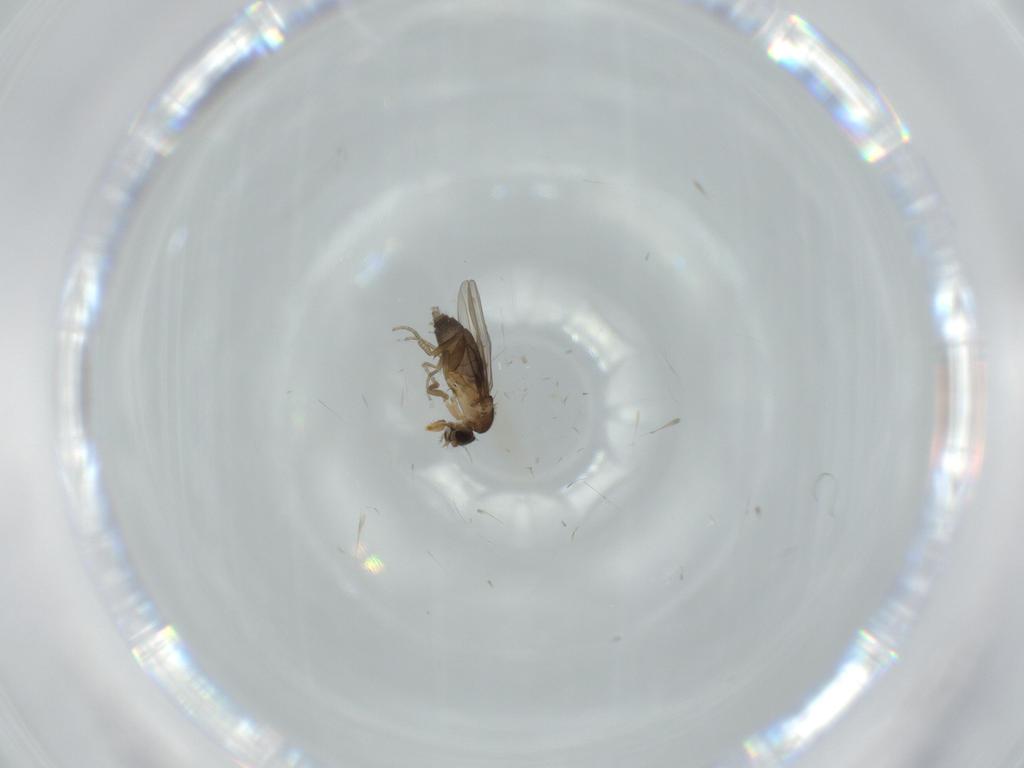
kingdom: Animalia
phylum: Arthropoda
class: Insecta
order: Diptera
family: Phoridae
